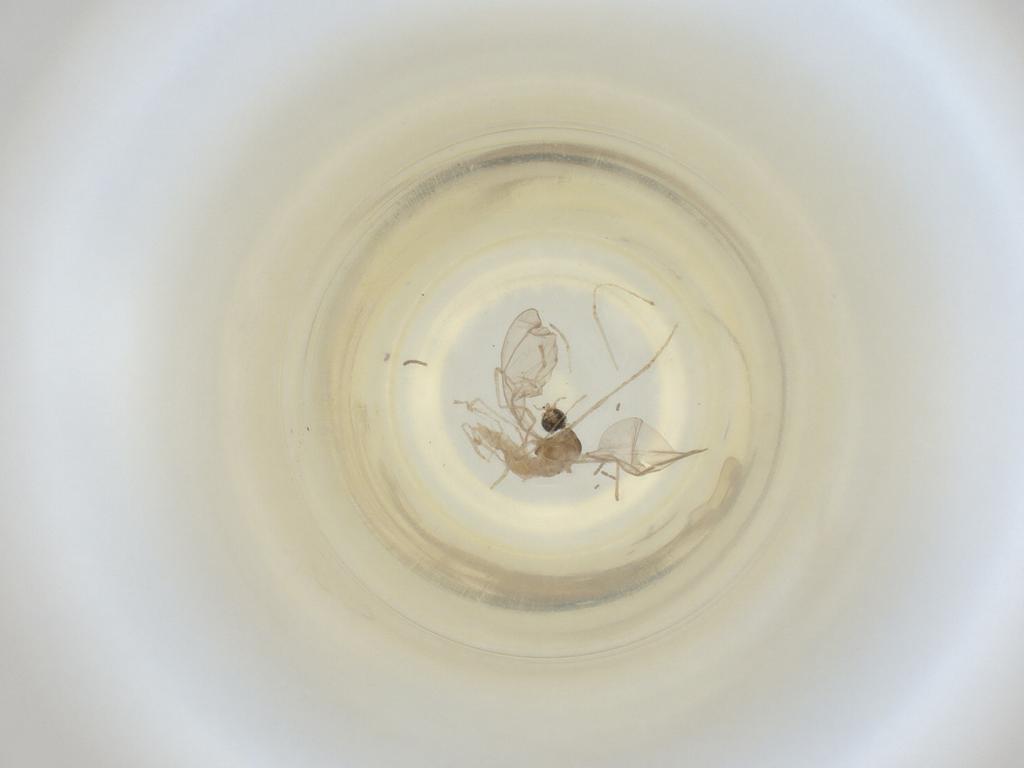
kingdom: Animalia
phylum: Arthropoda
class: Insecta
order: Diptera
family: Cecidomyiidae
